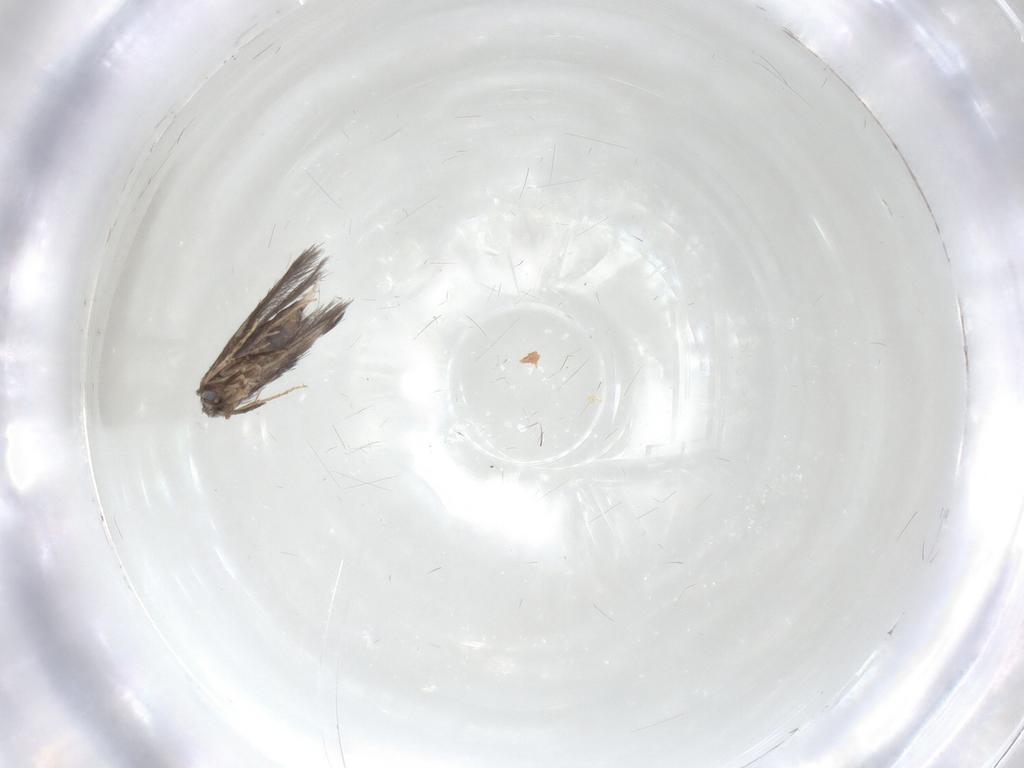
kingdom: Animalia
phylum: Arthropoda
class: Insecta
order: Trichoptera
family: Hydroptilidae
